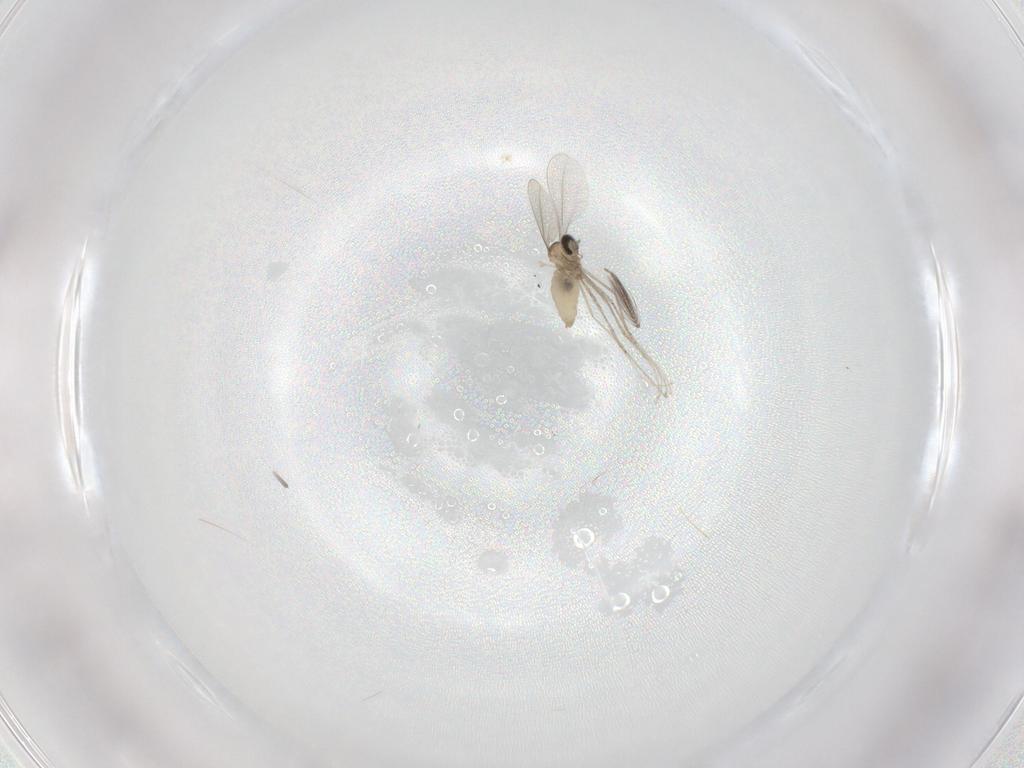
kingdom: Animalia
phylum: Arthropoda
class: Insecta
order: Diptera
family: Cecidomyiidae
